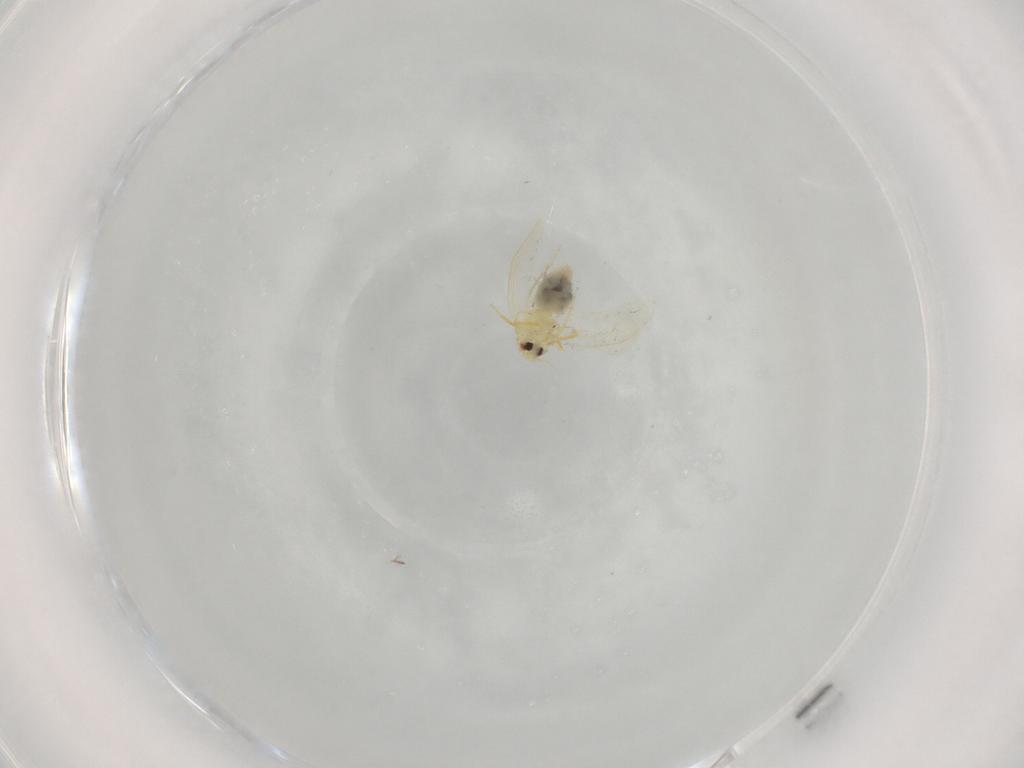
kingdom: Animalia
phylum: Arthropoda
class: Insecta
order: Hemiptera
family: Aleyrodidae
